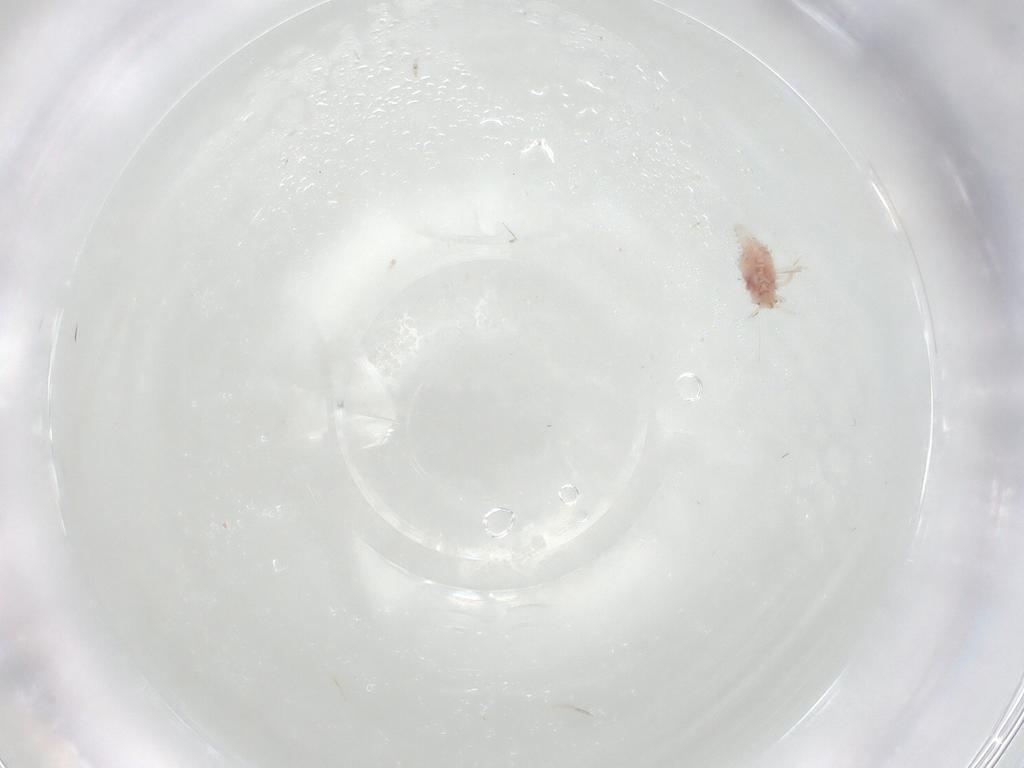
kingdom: Animalia
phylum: Arthropoda
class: Insecta
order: Neuroptera
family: Coniopterygidae
